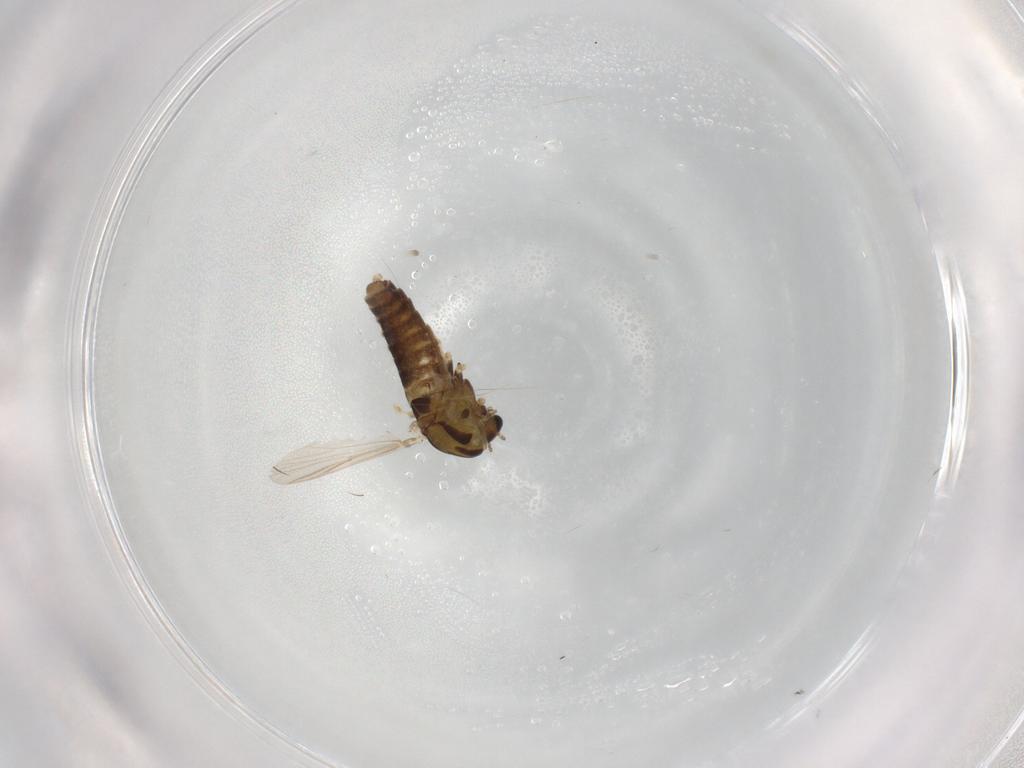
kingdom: Animalia
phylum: Arthropoda
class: Insecta
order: Diptera
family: Chironomidae
